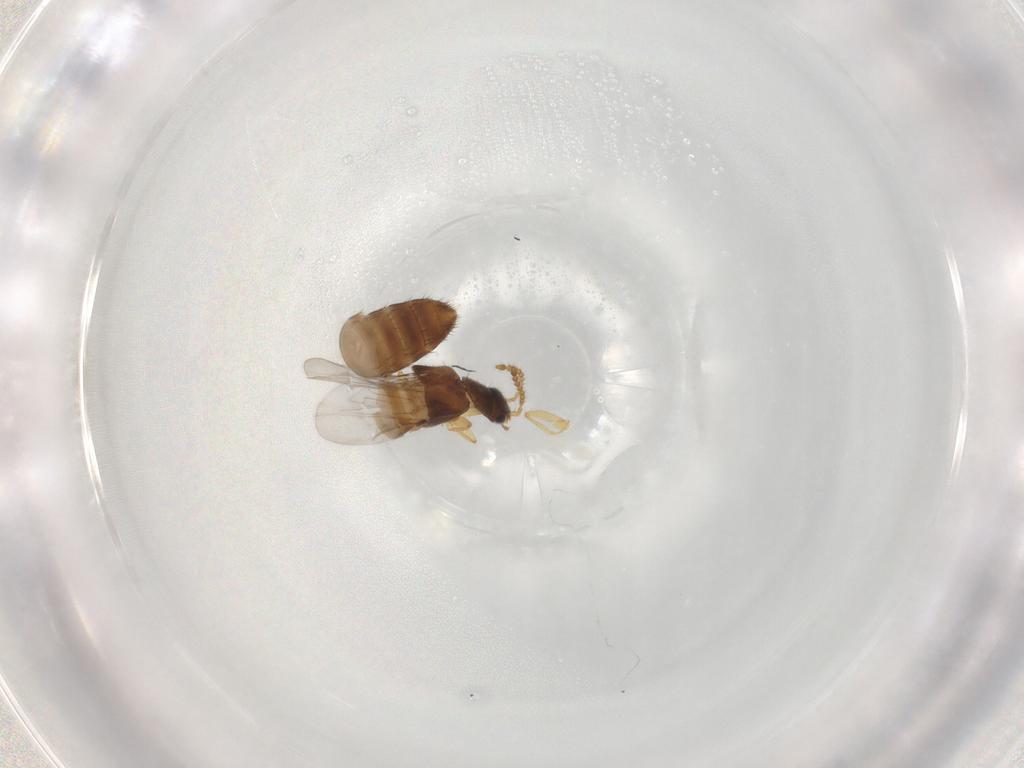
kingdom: Animalia
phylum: Arthropoda
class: Insecta
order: Coleoptera
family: Staphylinidae
